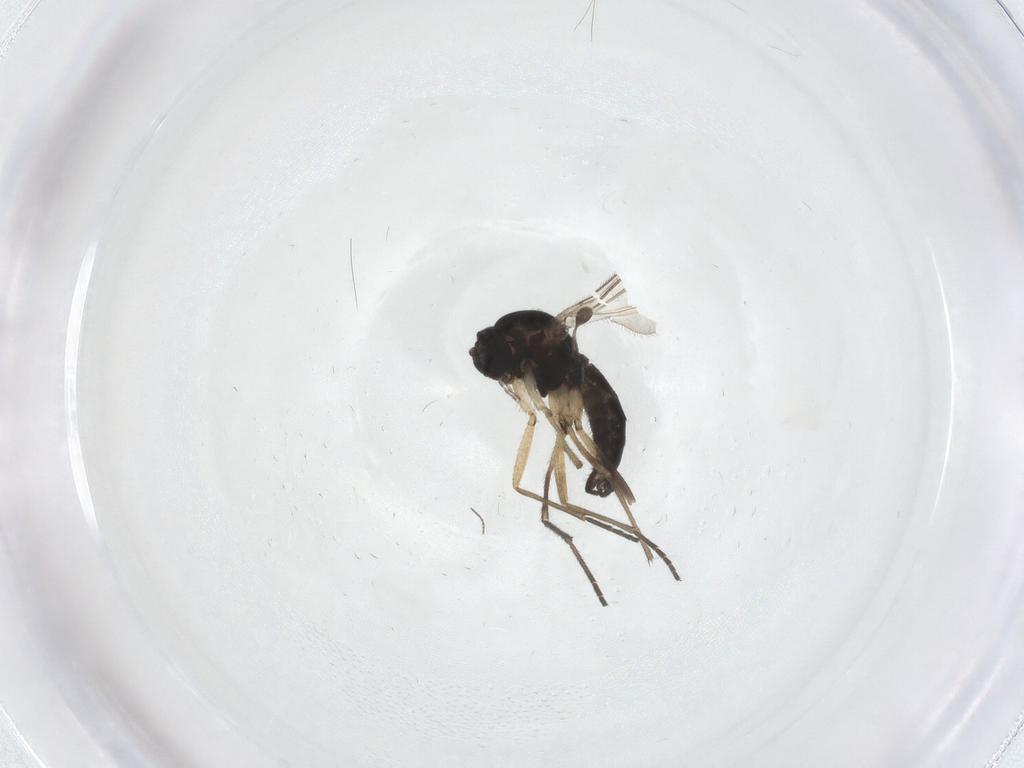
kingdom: Animalia
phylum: Arthropoda
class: Insecta
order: Diptera
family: Sciaridae
